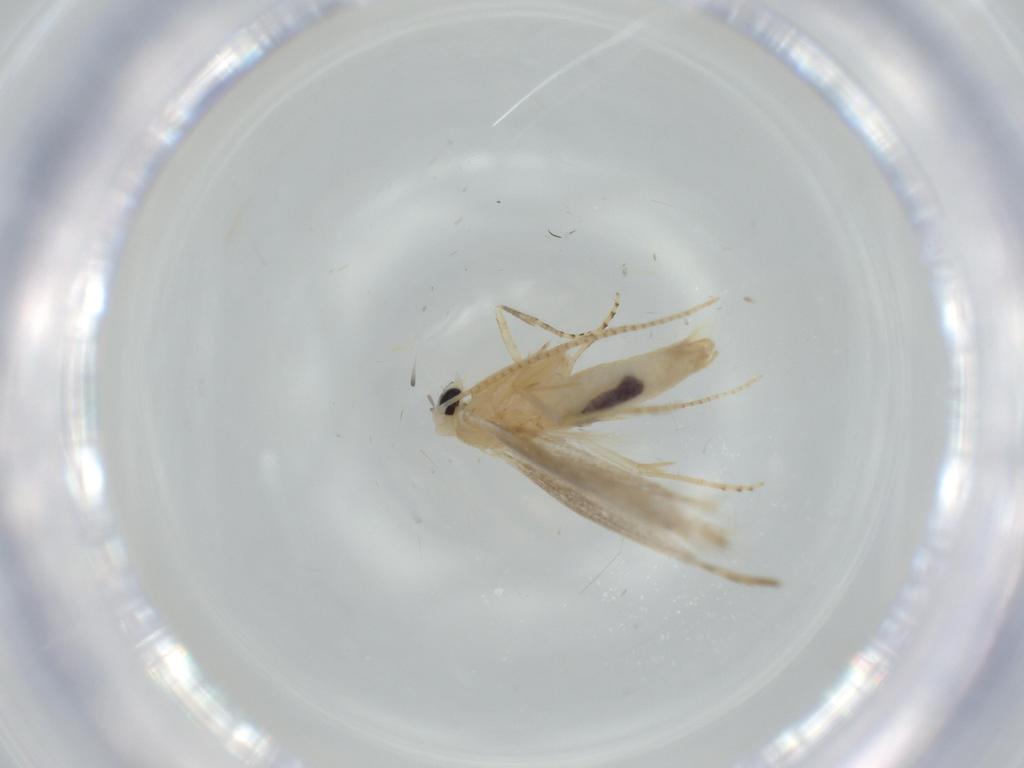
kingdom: Animalia
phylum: Arthropoda
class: Insecta
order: Lepidoptera
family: Bucculatricidae
